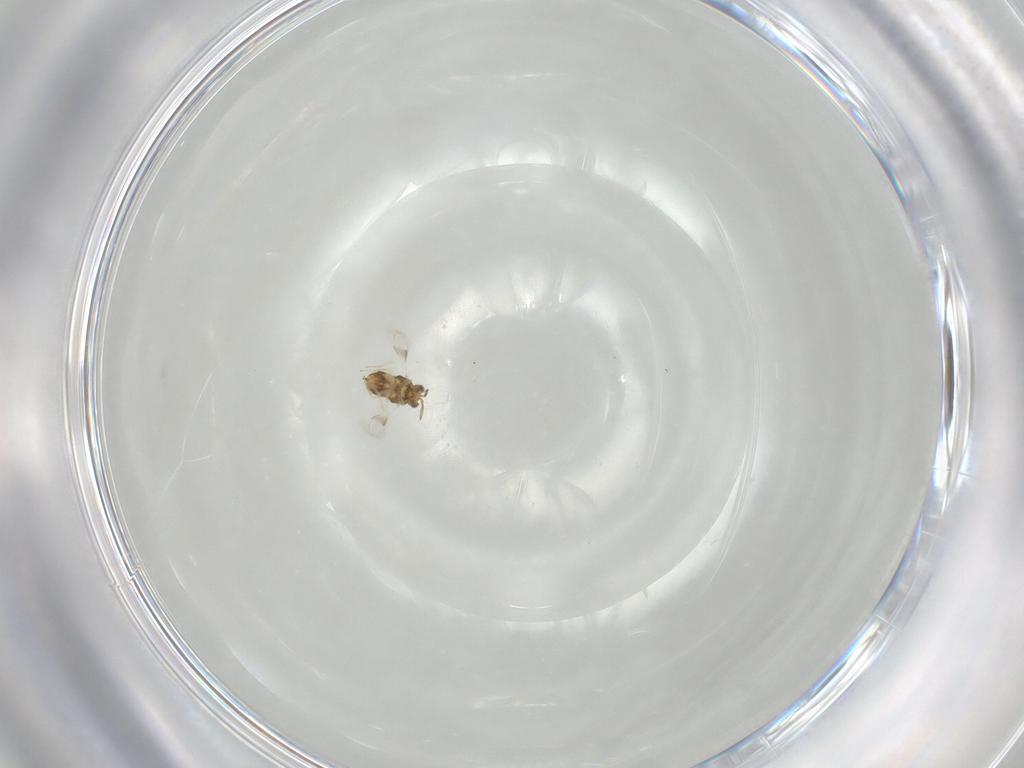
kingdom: Animalia
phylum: Arthropoda
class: Insecta
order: Hymenoptera
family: Aphelinidae
